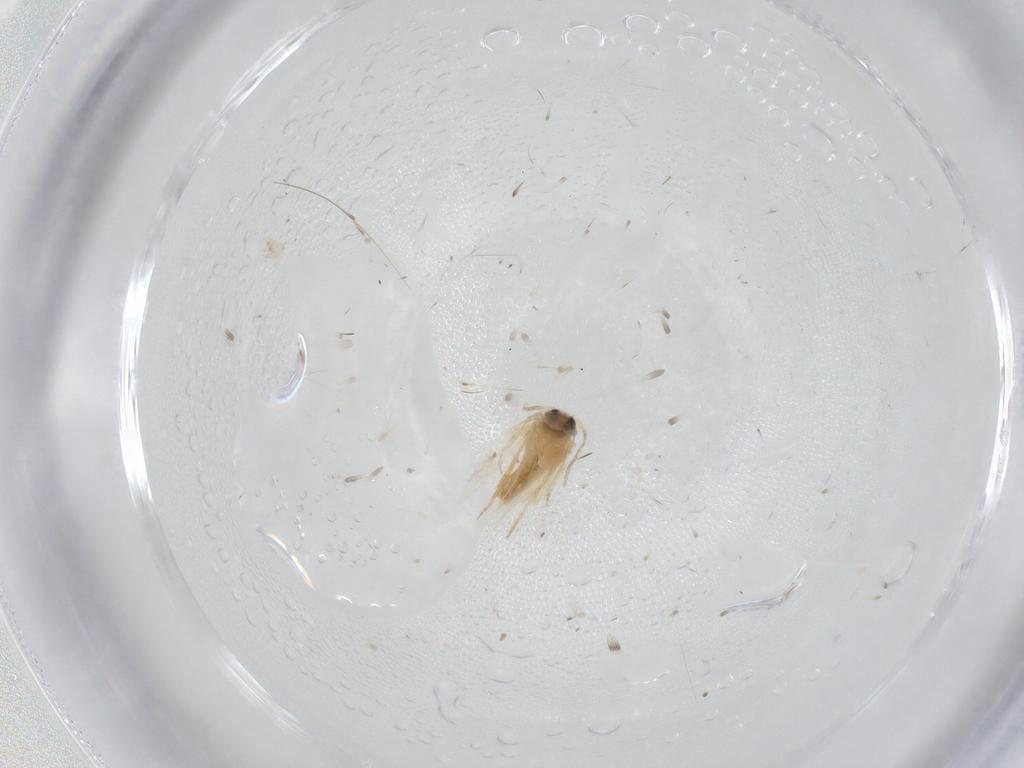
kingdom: Animalia
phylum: Arthropoda
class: Insecta
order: Lepidoptera
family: Crambidae
